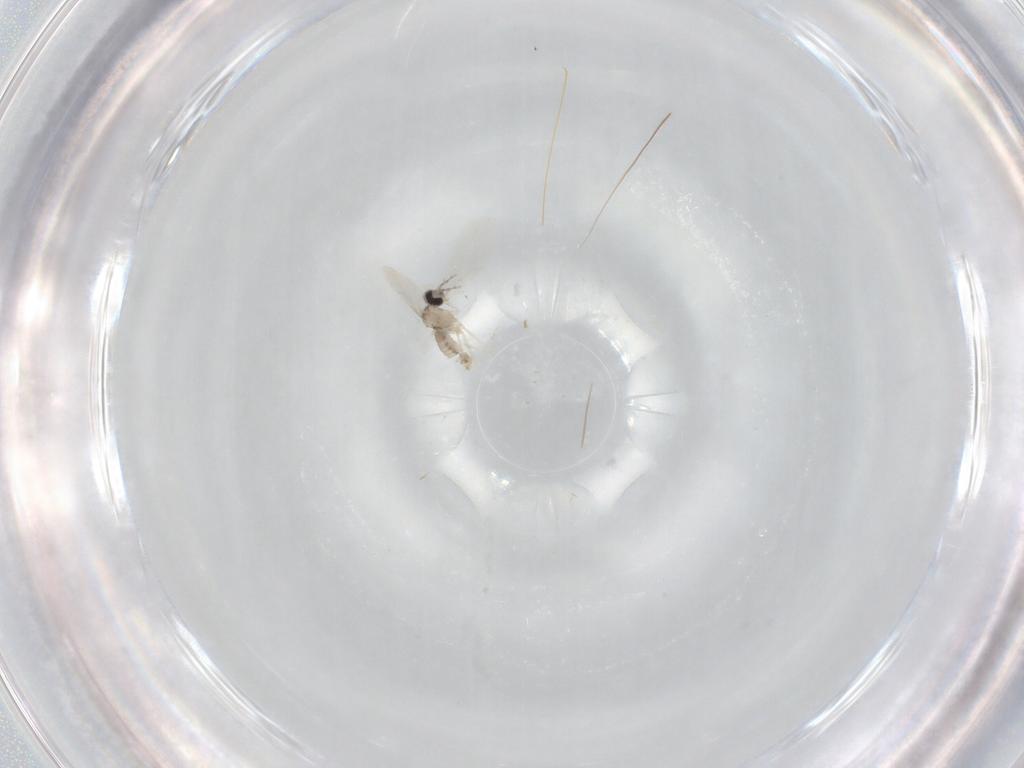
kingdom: Animalia
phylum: Arthropoda
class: Insecta
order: Diptera
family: Cecidomyiidae
